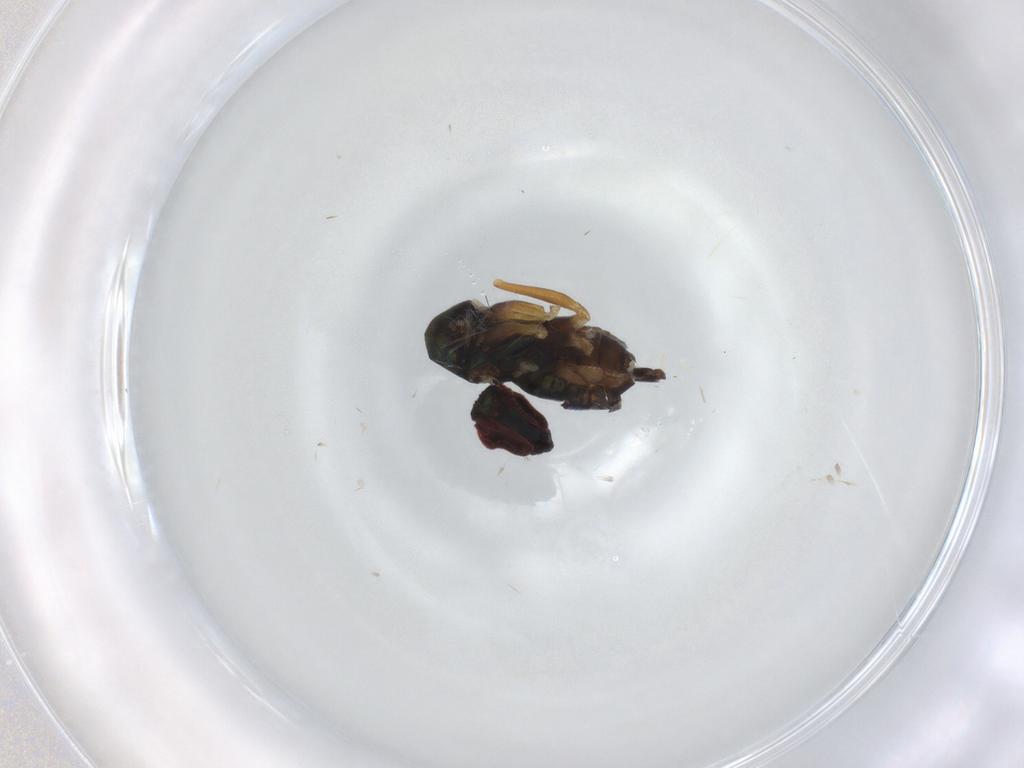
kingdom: Animalia
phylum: Arthropoda
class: Insecta
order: Diptera
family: Dolichopodidae
